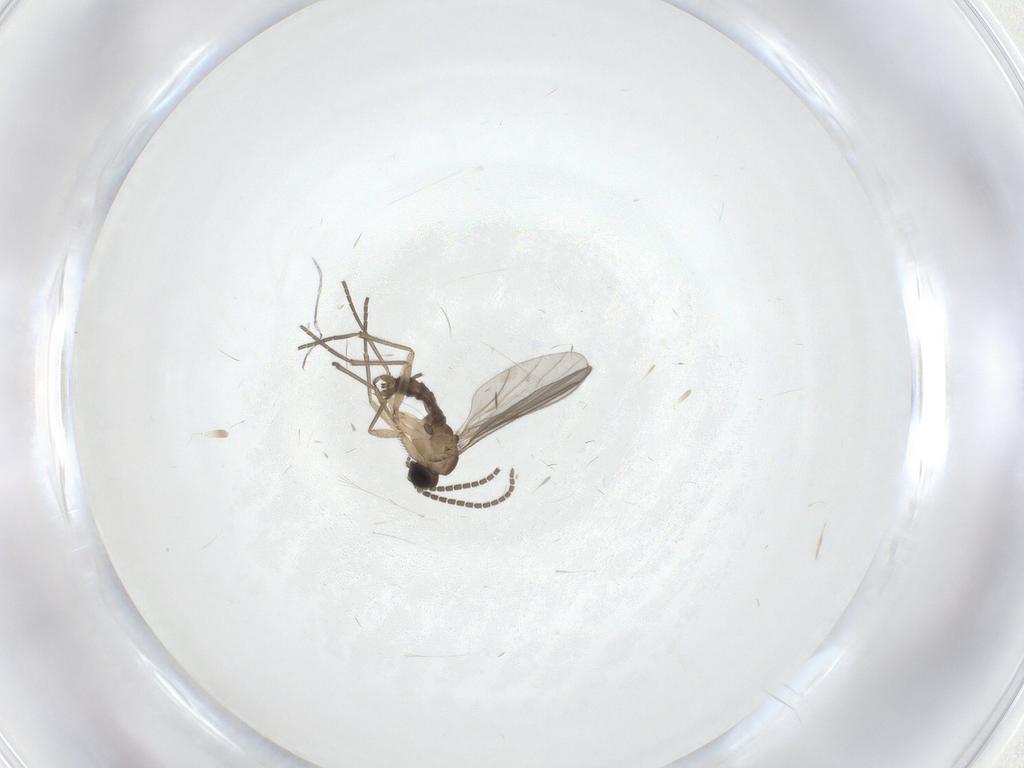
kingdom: Animalia
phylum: Arthropoda
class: Insecta
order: Diptera
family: Sciaridae
